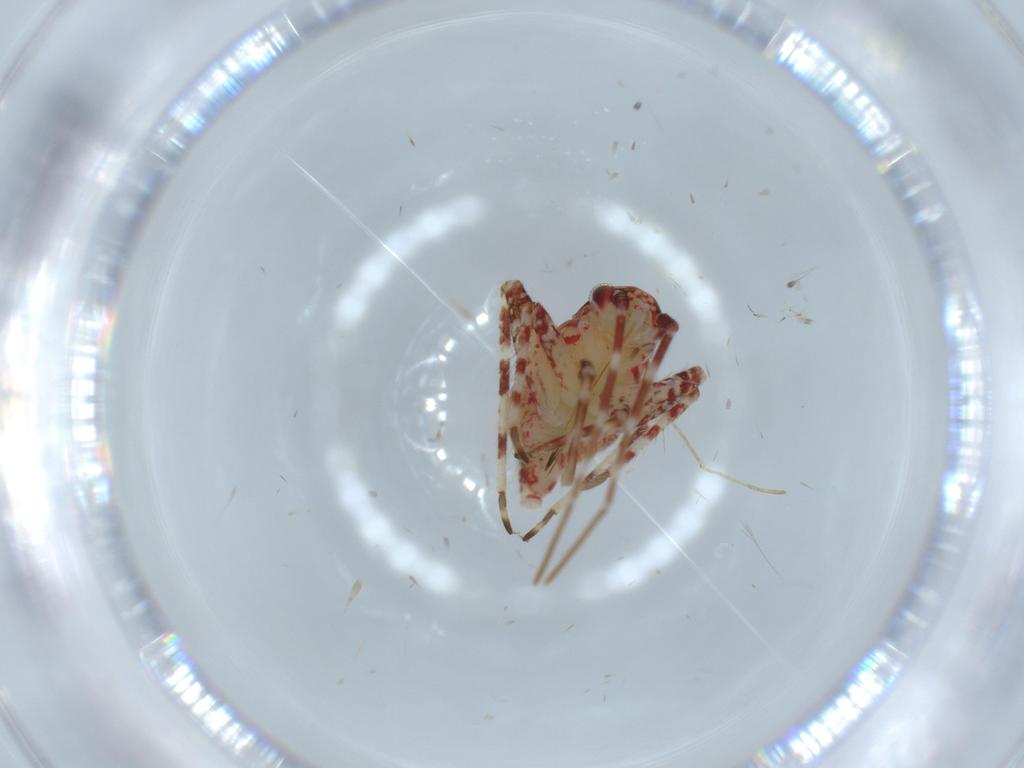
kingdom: Animalia
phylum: Arthropoda
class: Insecta
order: Hemiptera
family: Miridae
